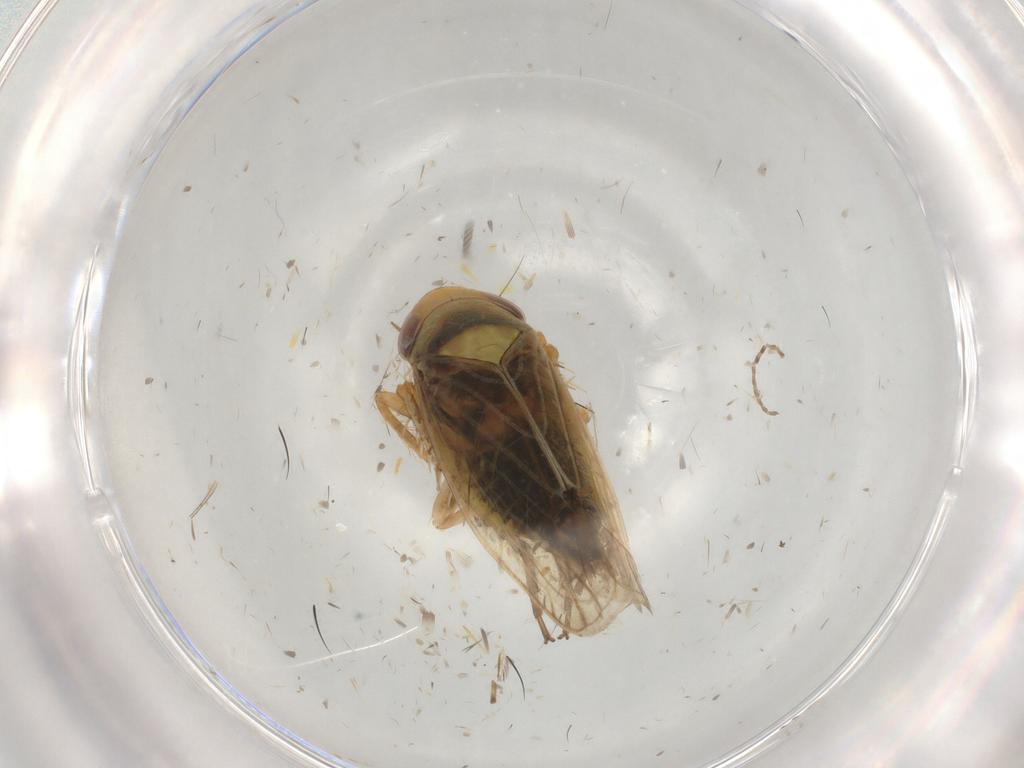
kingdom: Animalia
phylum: Arthropoda
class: Insecta
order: Hemiptera
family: Cicadellidae
